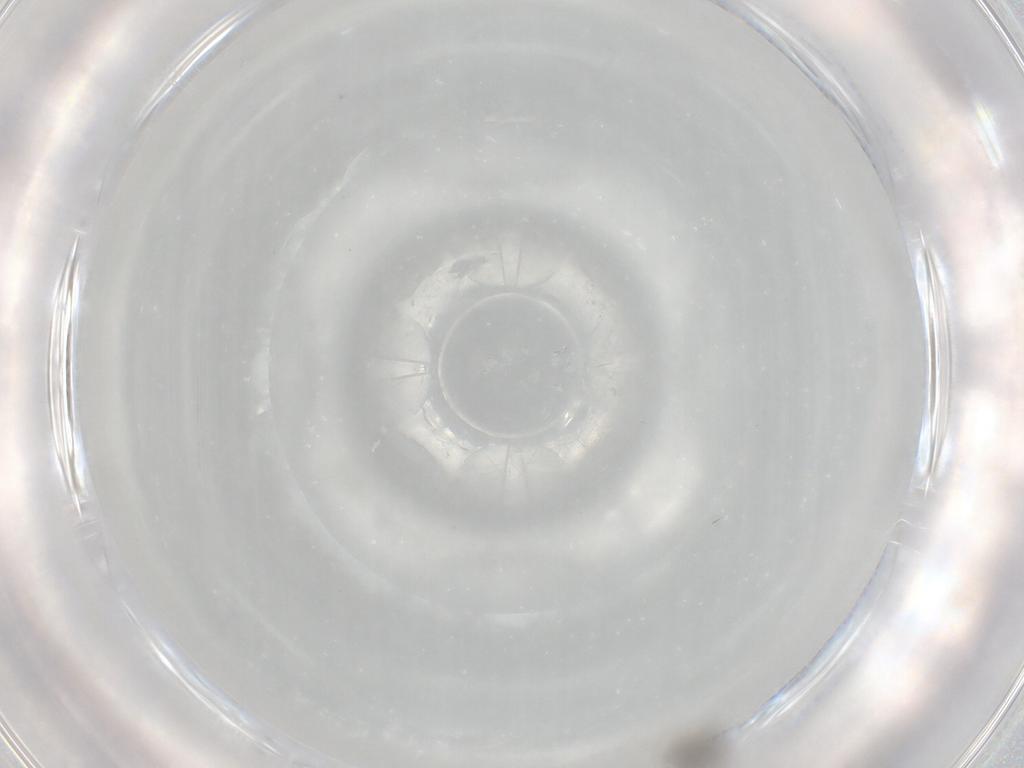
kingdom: Animalia
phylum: Arthropoda
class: Insecta
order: Diptera
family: Cecidomyiidae
